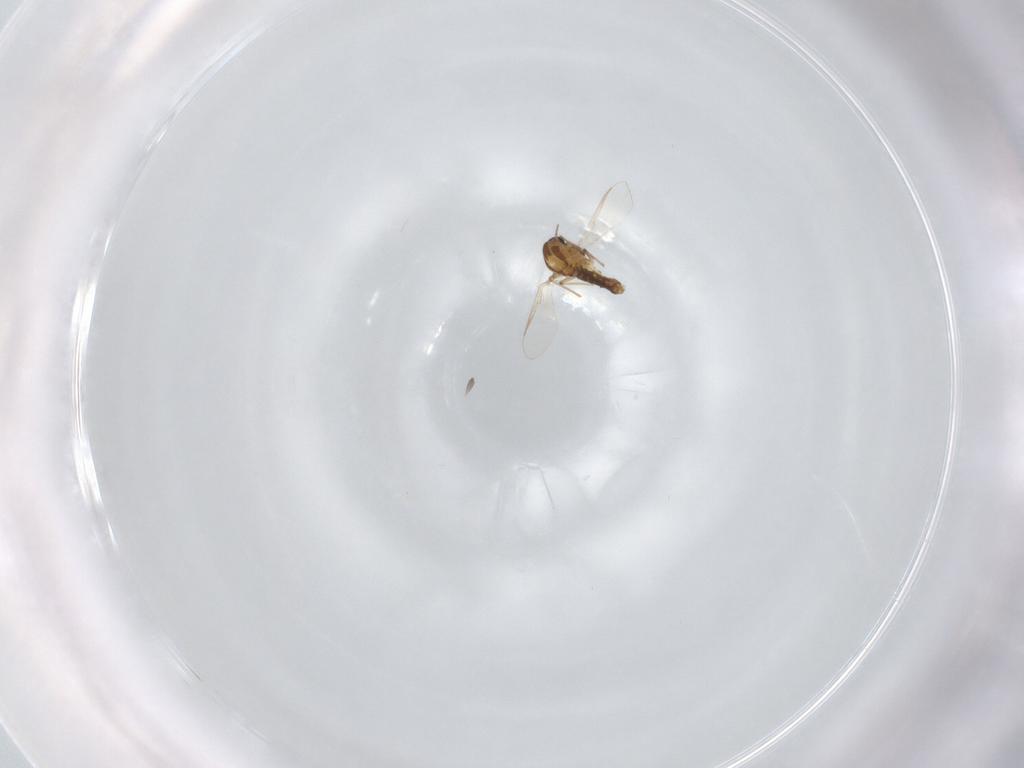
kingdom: Animalia
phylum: Arthropoda
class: Insecta
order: Diptera
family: Chironomidae
